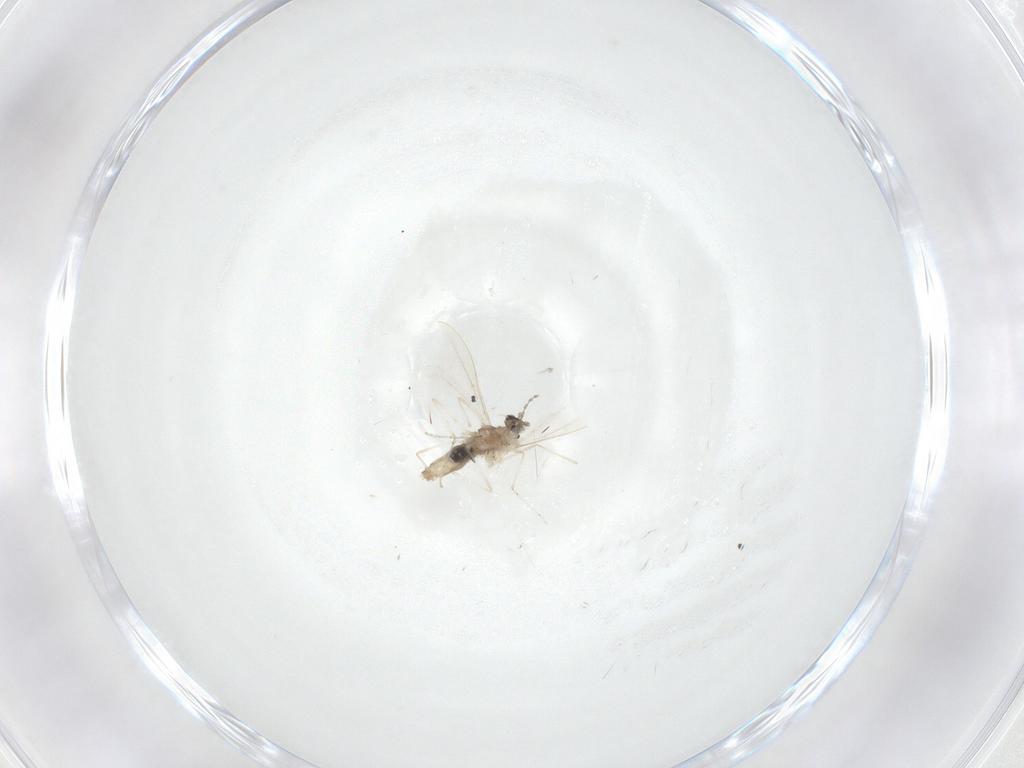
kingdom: Animalia
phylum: Arthropoda
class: Insecta
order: Diptera
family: Cecidomyiidae
